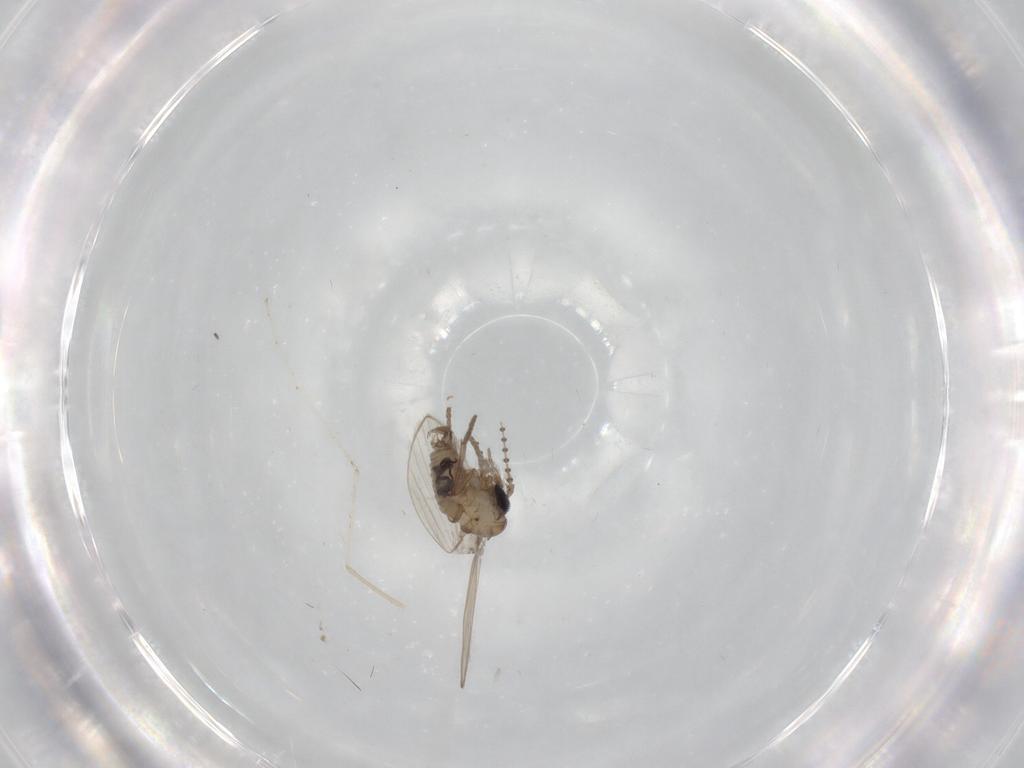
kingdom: Animalia
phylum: Arthropoda
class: Insecta
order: Diptera
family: Psychodidae
